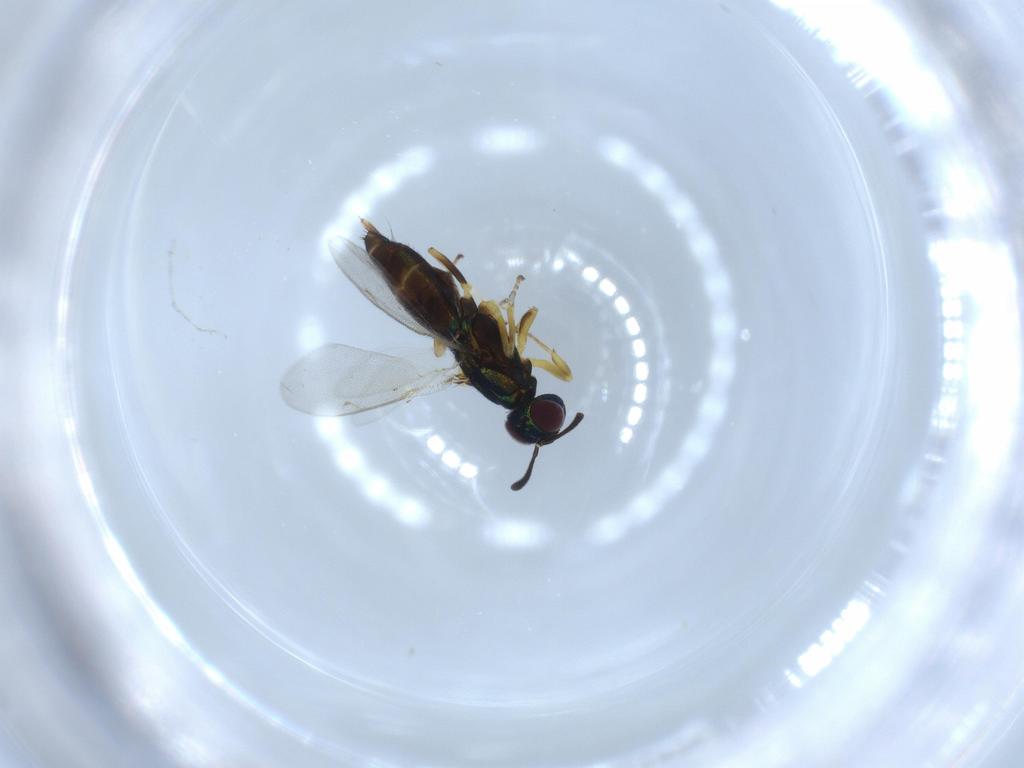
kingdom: Animalia
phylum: Arthropoda
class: Insecta
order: Hymenoptera
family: Eupelmidae
